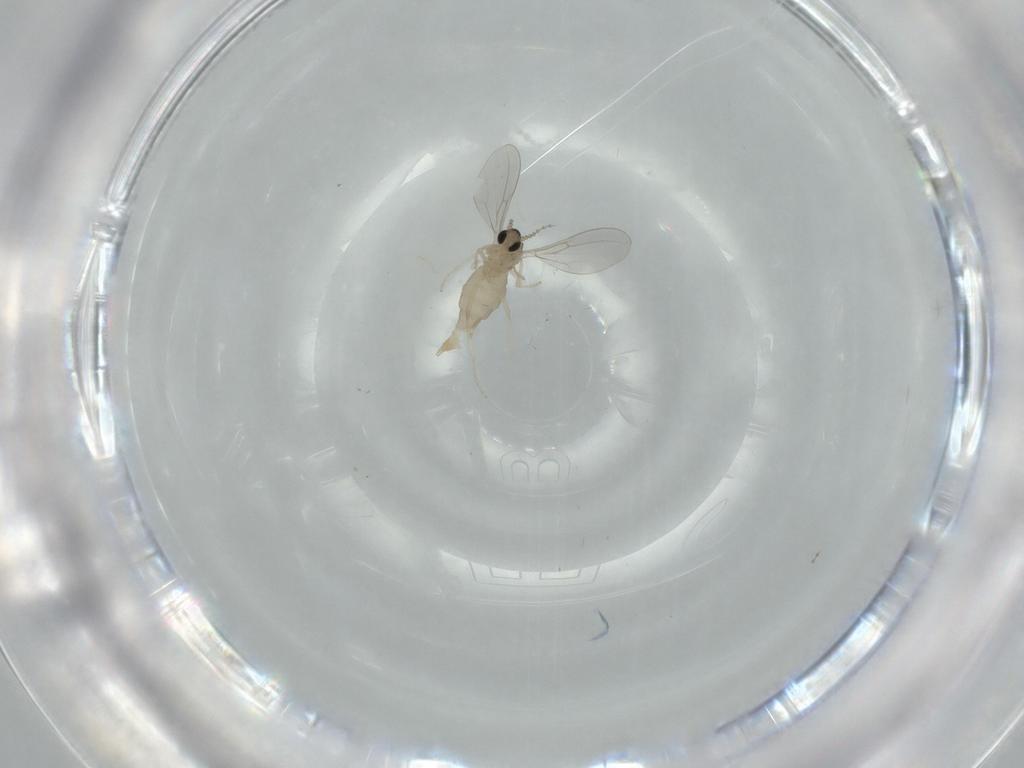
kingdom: Animalia
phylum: Arthropoda
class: Insecta
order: Diptera
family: Cecidomyiidae
